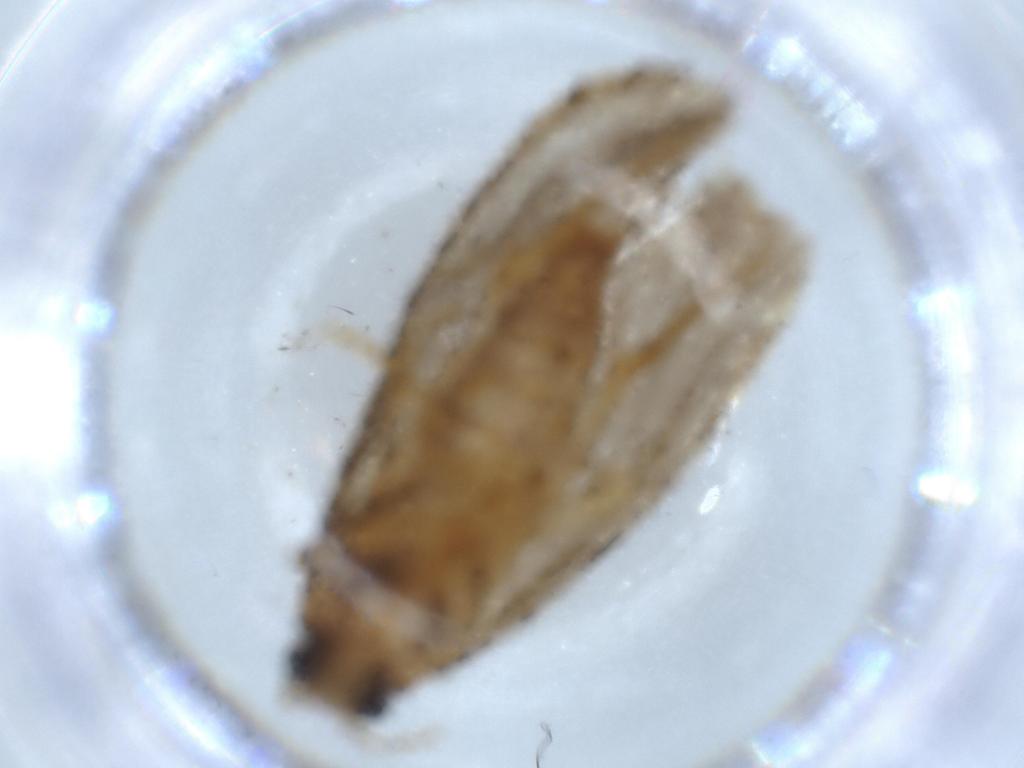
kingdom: Animalia
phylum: Arthropoda
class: Insecta
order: Lepidoptera
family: Tineidae
